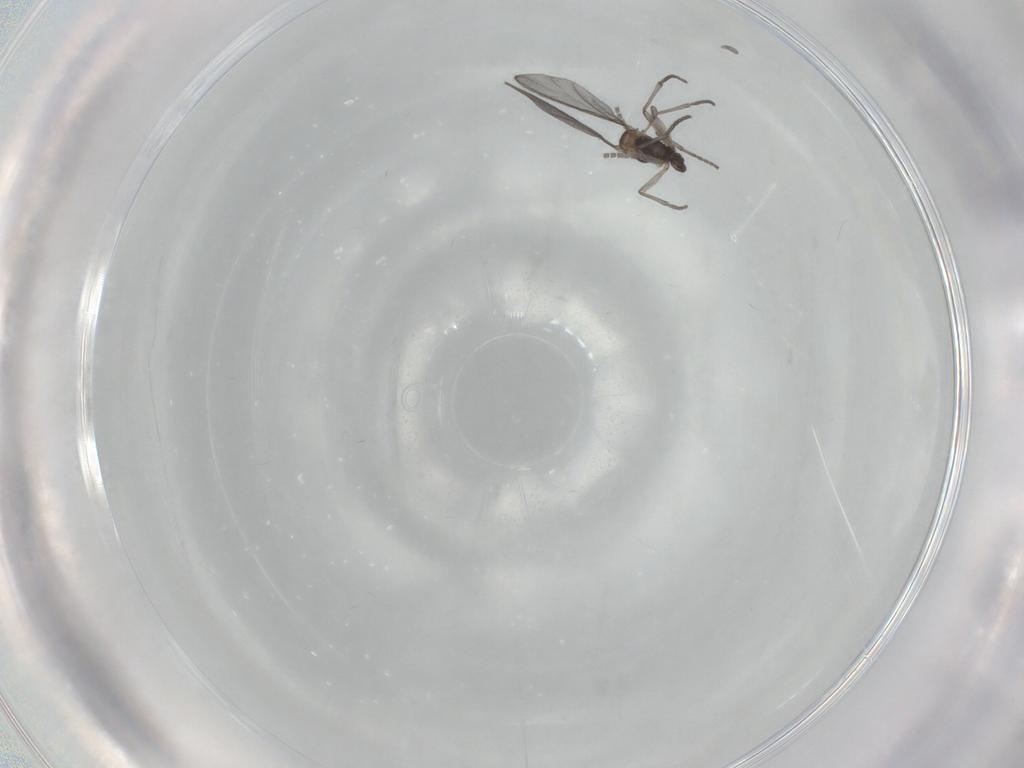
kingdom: Animalia
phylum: Arthropoda
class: Insecta
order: Diptera
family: Sciaridae
